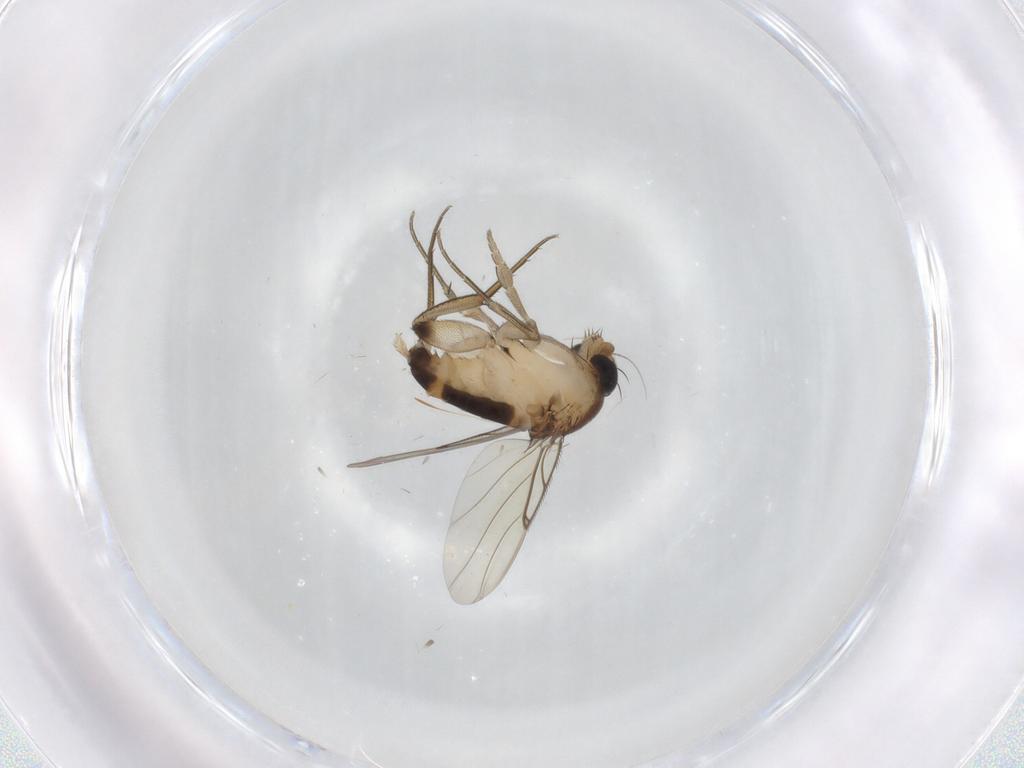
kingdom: Animalia
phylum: Arthropoda
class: Insecta
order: Diptera
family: Phoridae
